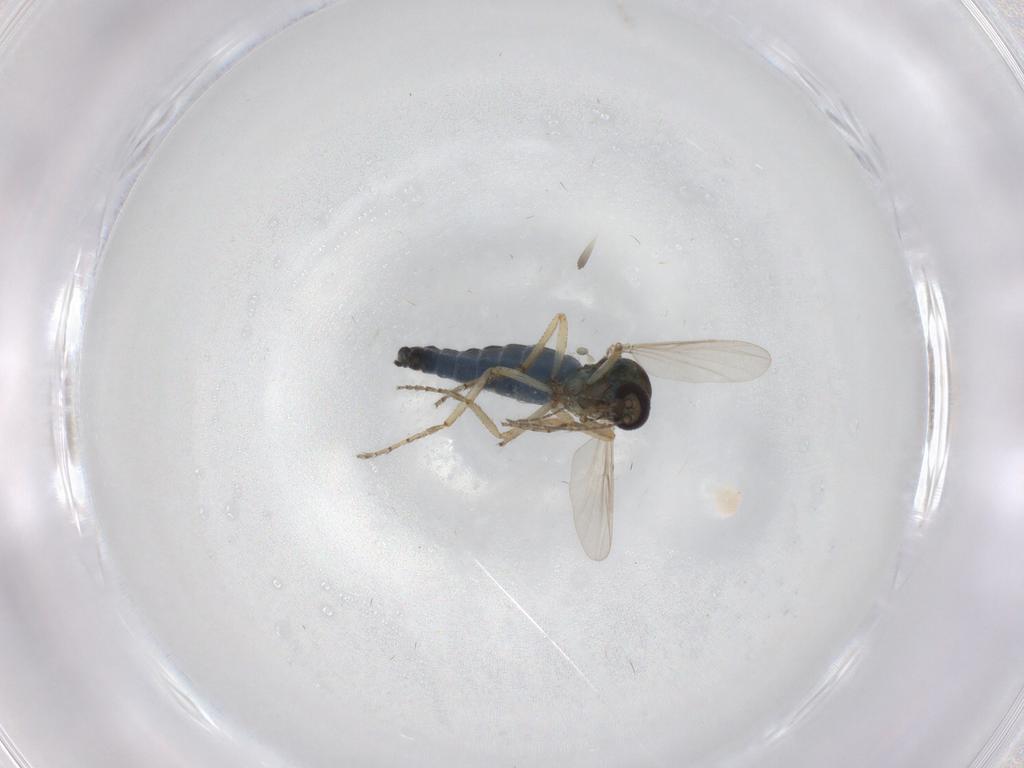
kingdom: Animalia
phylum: Arthropoda
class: Insecta
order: Diptera
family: Ceratopogonidae
